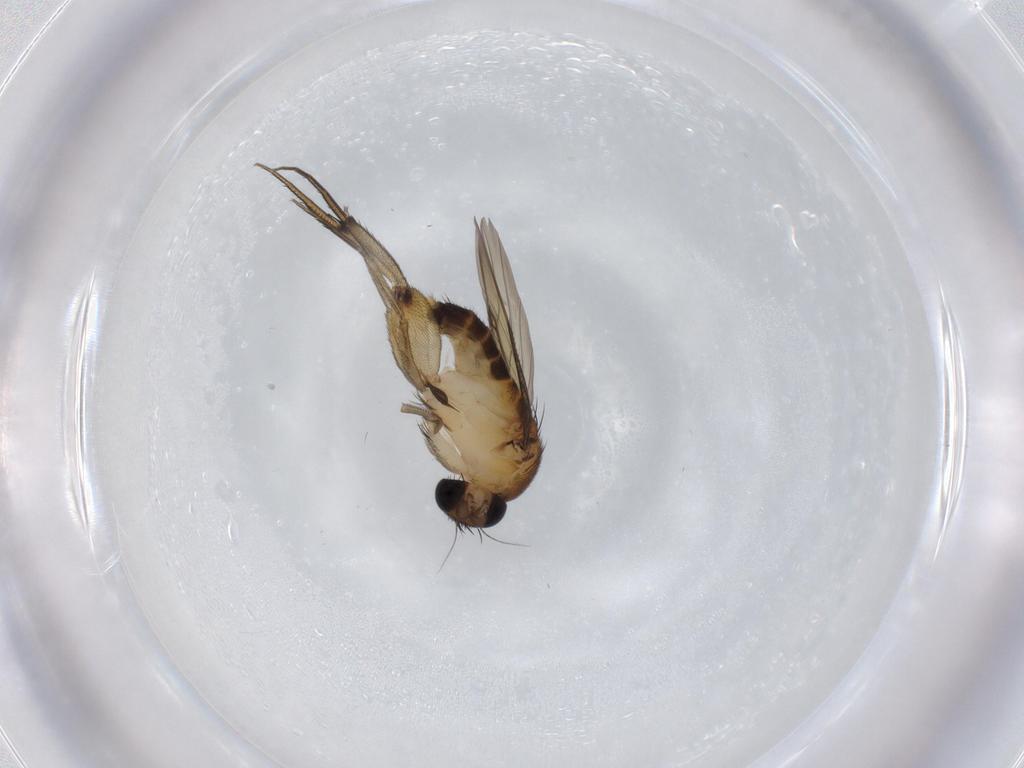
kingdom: Animalia
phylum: Arthropoda
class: Insecta
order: Diptera
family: Phoridae
